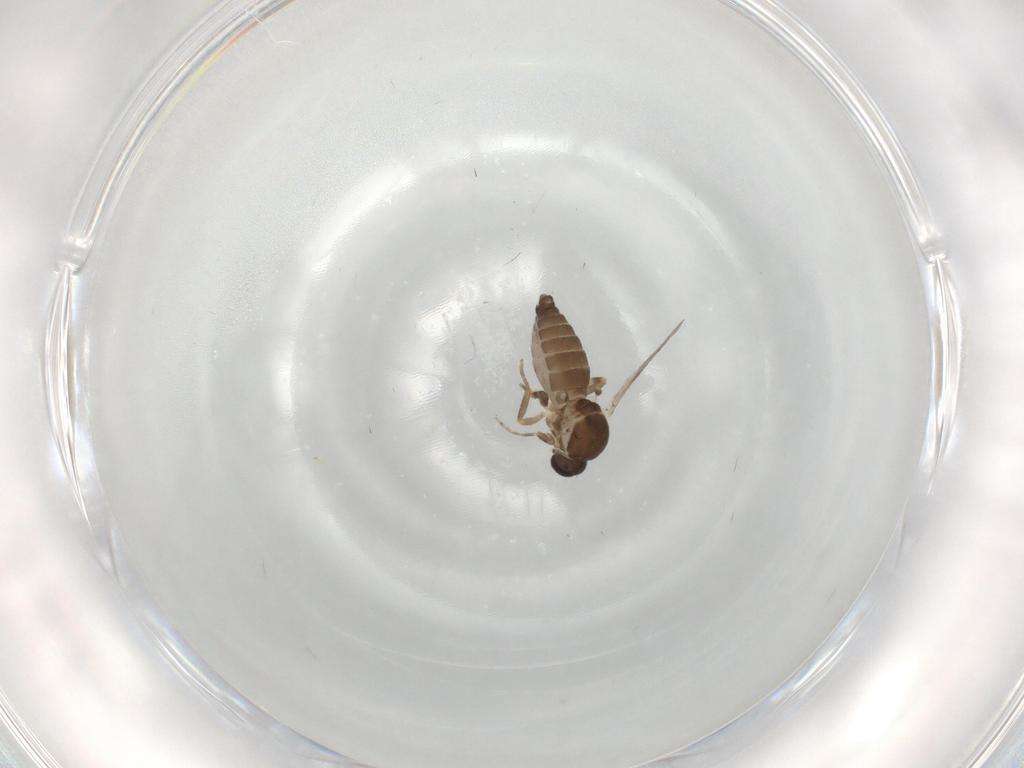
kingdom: Animalia
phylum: Arthropoda
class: Insecta
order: Diptera
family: Ceratopogonidae
